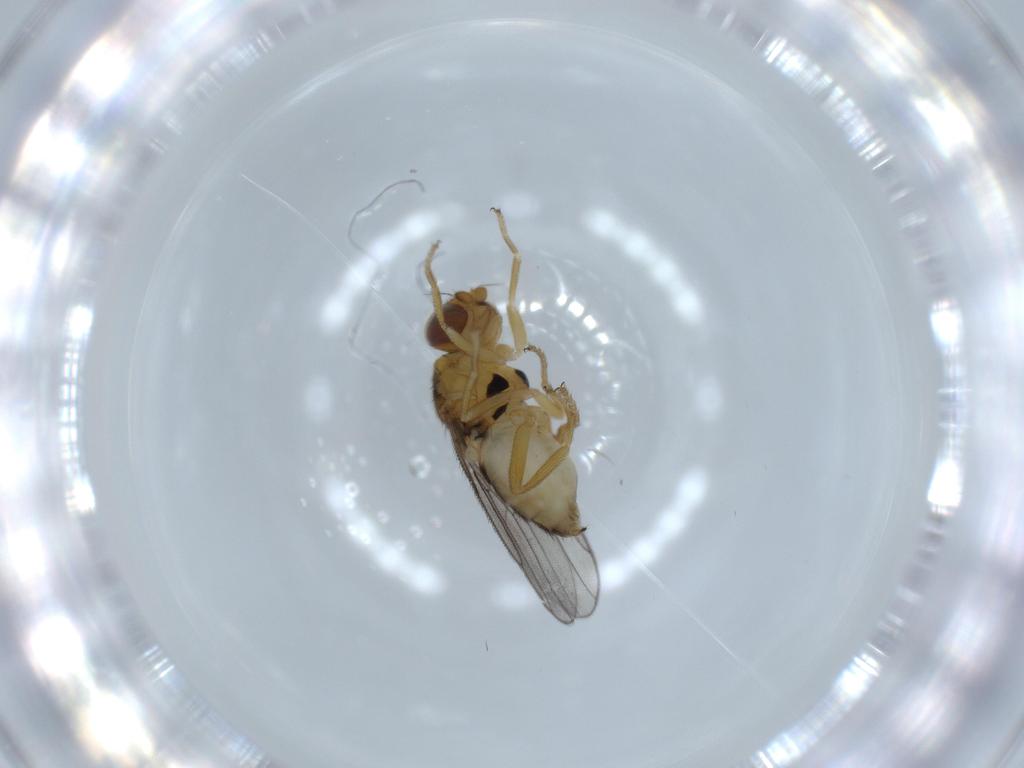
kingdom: Animalia
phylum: Arthropoda
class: Insecta
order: Diptera
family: Chloropidae
